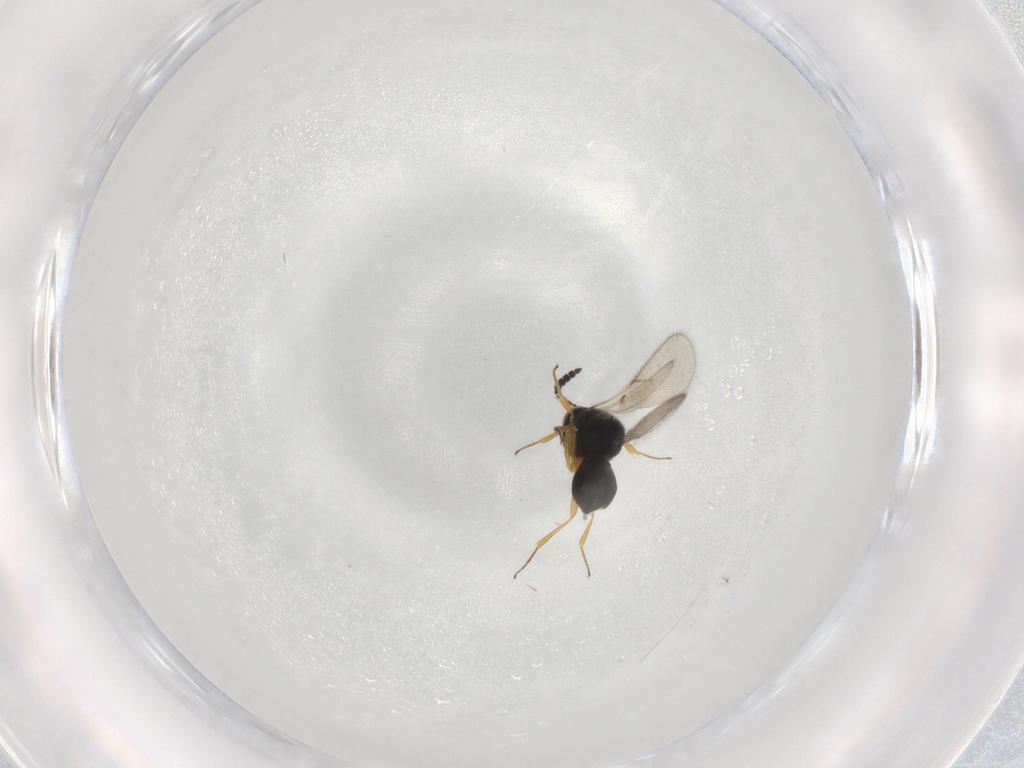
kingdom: Animalia
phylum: Arthropoda
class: Insecta
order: Hymenoptera
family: Scelionidae
